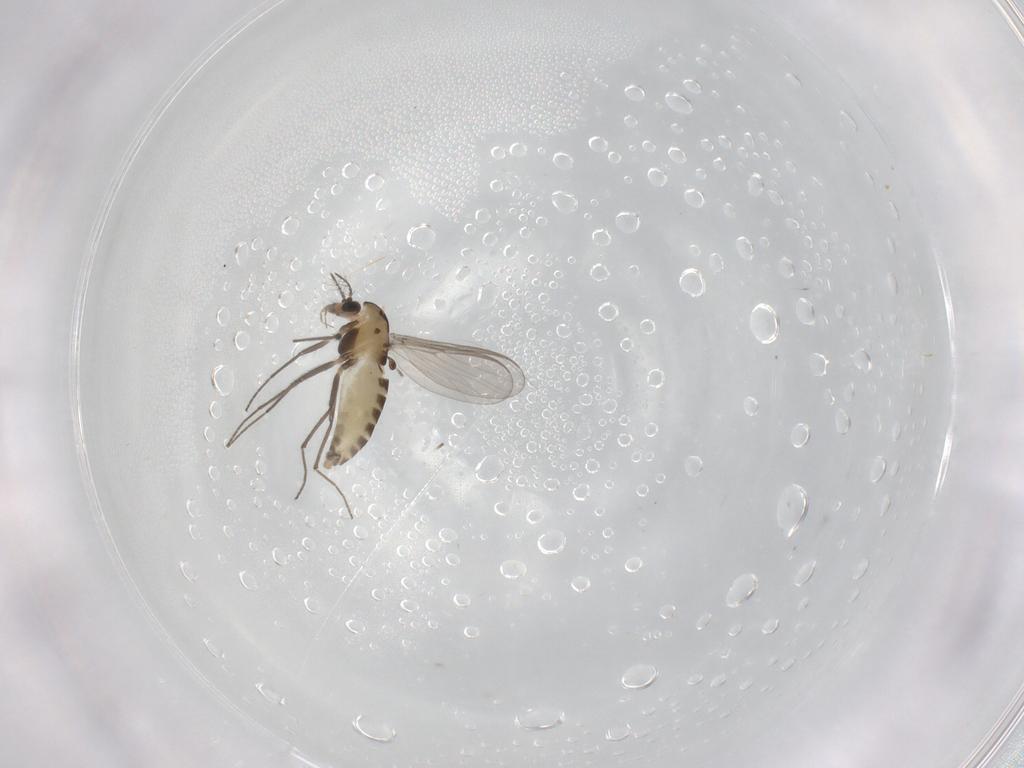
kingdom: Animalia
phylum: Arthropoda
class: Insecta
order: Diptera
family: Chironomidae
